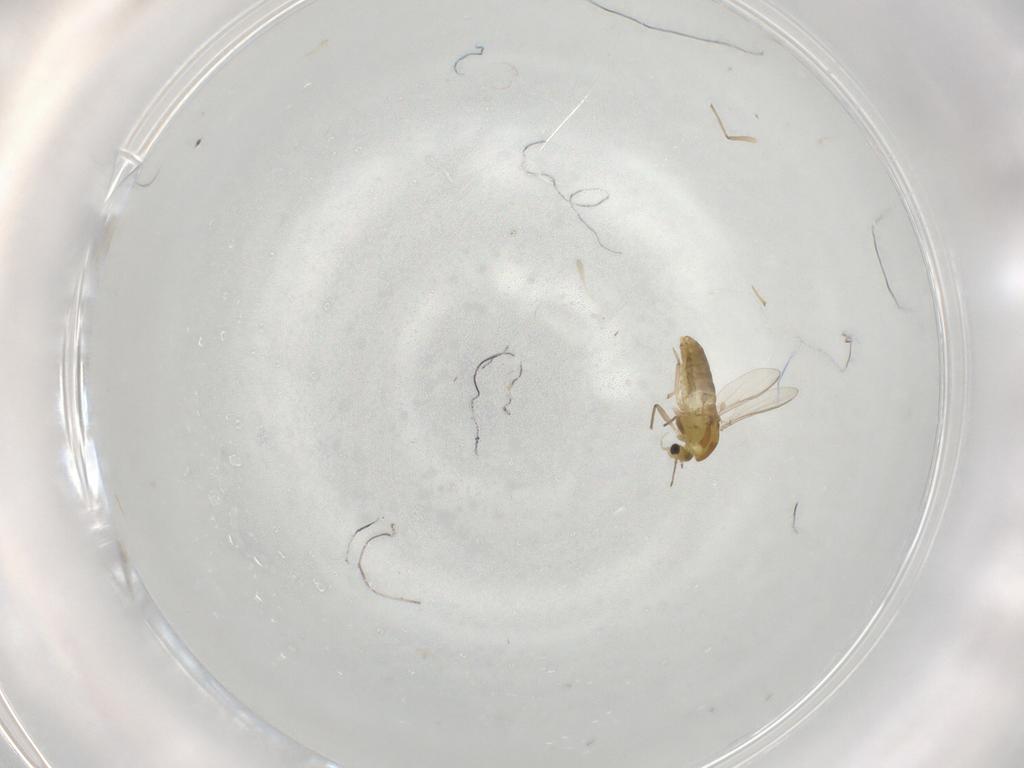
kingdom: Animalia
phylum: Arthropoda
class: Insecta
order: Diptera
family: Chironomidae
